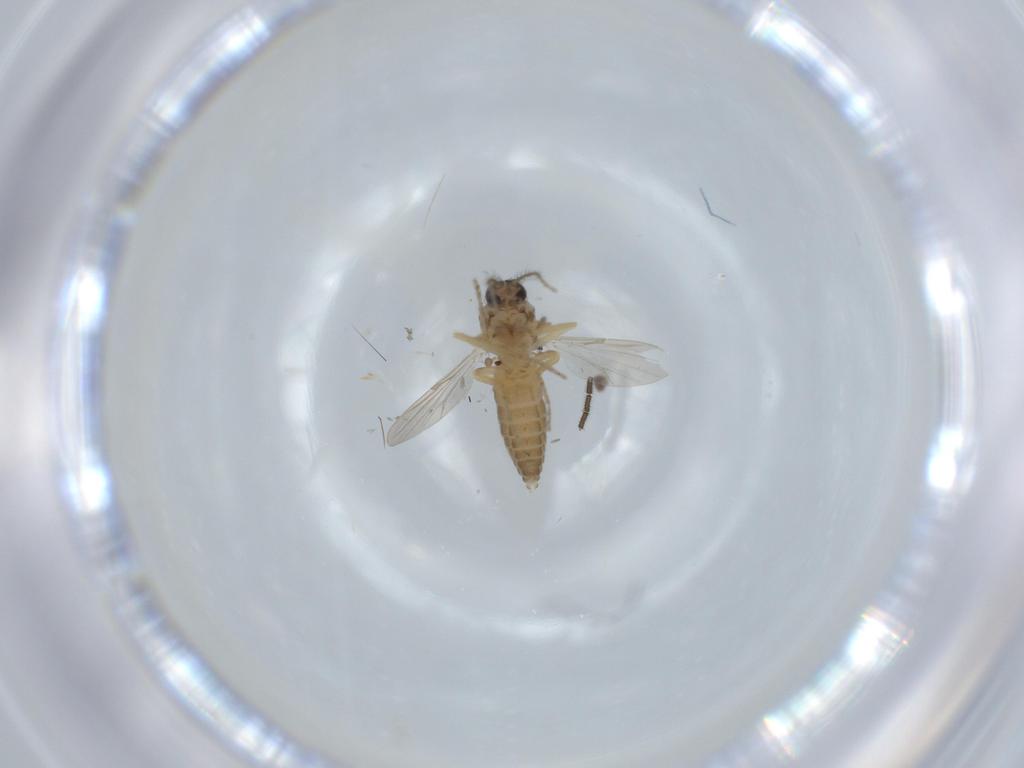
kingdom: Animalia
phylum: Arthropoda
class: Insecta
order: Diptera
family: Ceratopogonidae
